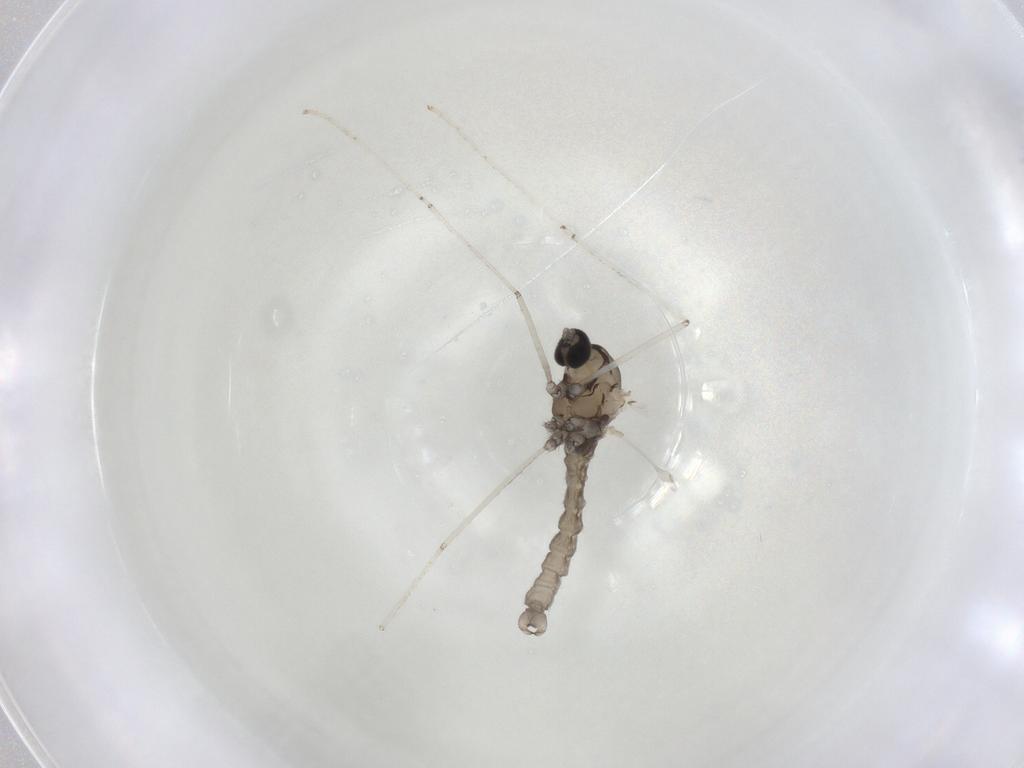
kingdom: Animalia
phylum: Arthropoda
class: Insecta
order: Diptera
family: Cecidomyiidae
